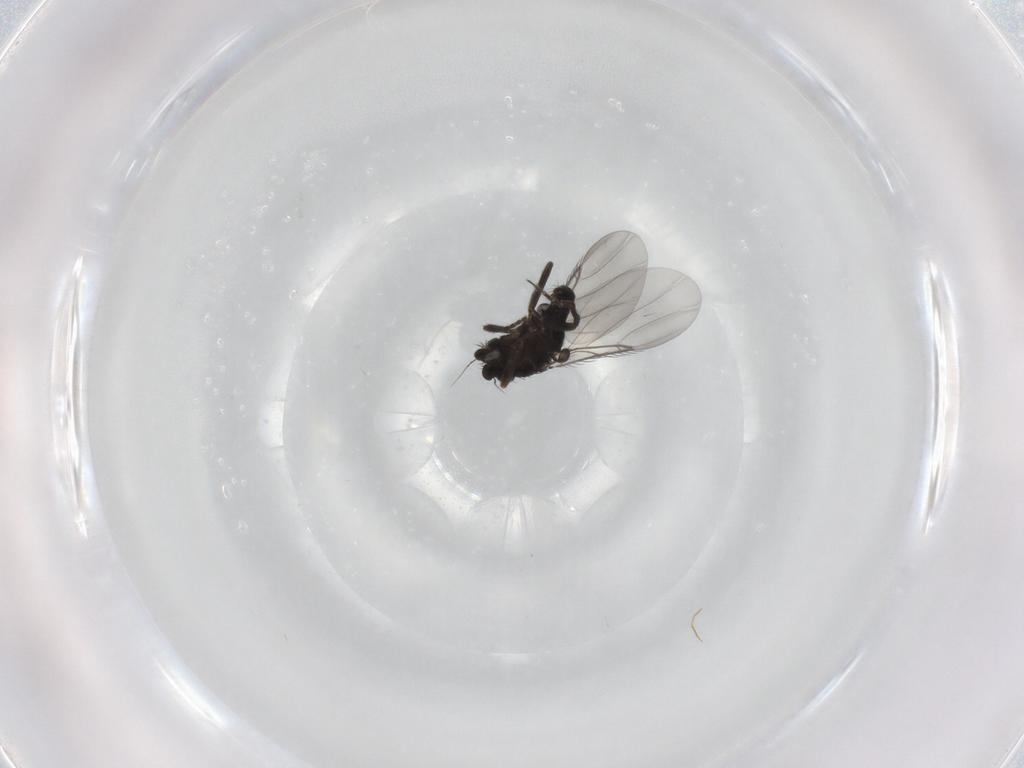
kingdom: Animalia
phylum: Arthropoda
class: Insecta
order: Diptera
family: Phoridae
